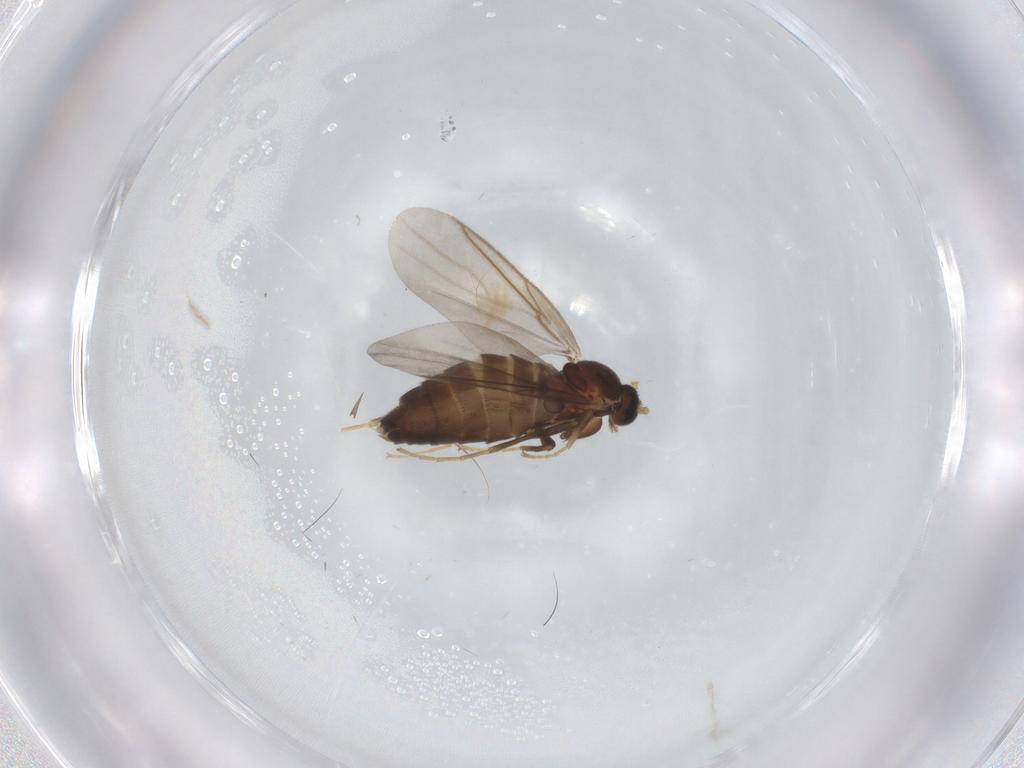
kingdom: Animalia
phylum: Arthropoda
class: Insecta
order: Diptera
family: Scatopsidae
